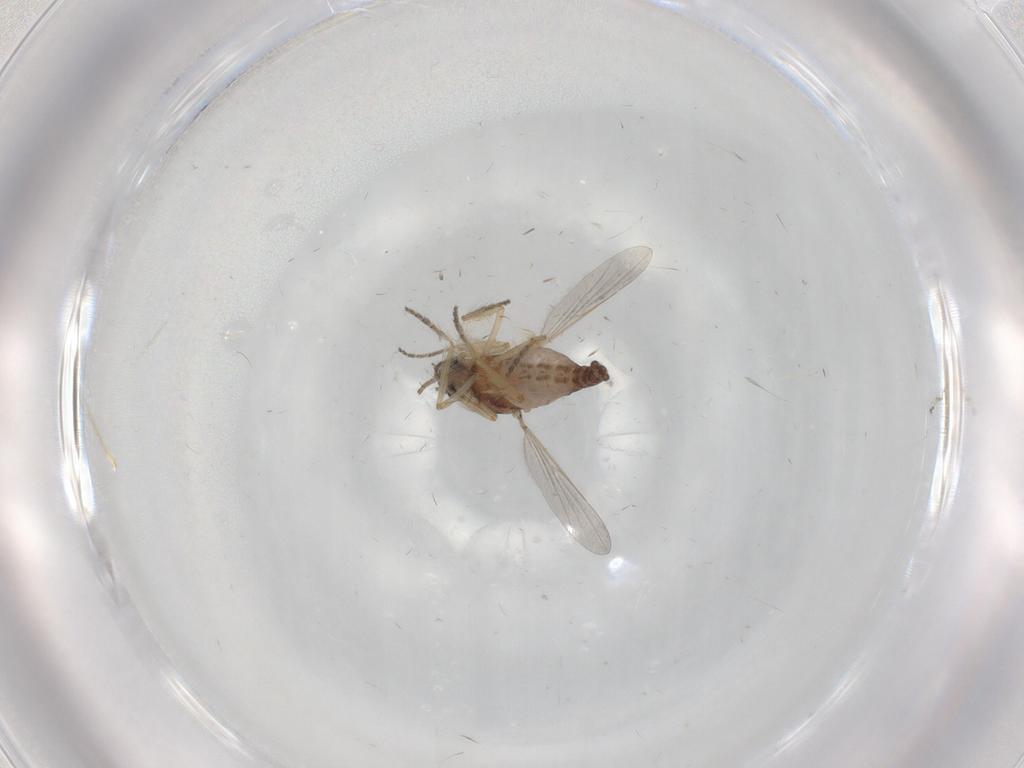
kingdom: Animalia
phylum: Arthropoda
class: Insecta
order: Diptera
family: Ceratopogonidae
